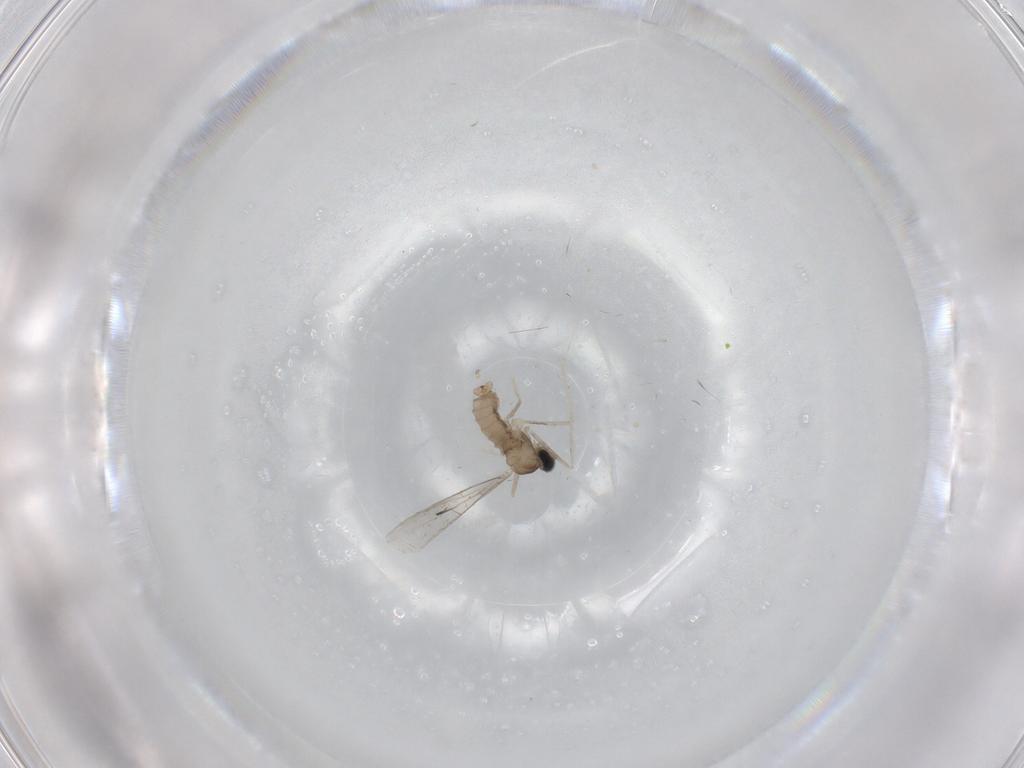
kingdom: Animalia
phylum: Arthropoda
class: Insecta
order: Diptera
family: Cecidomyiidae
